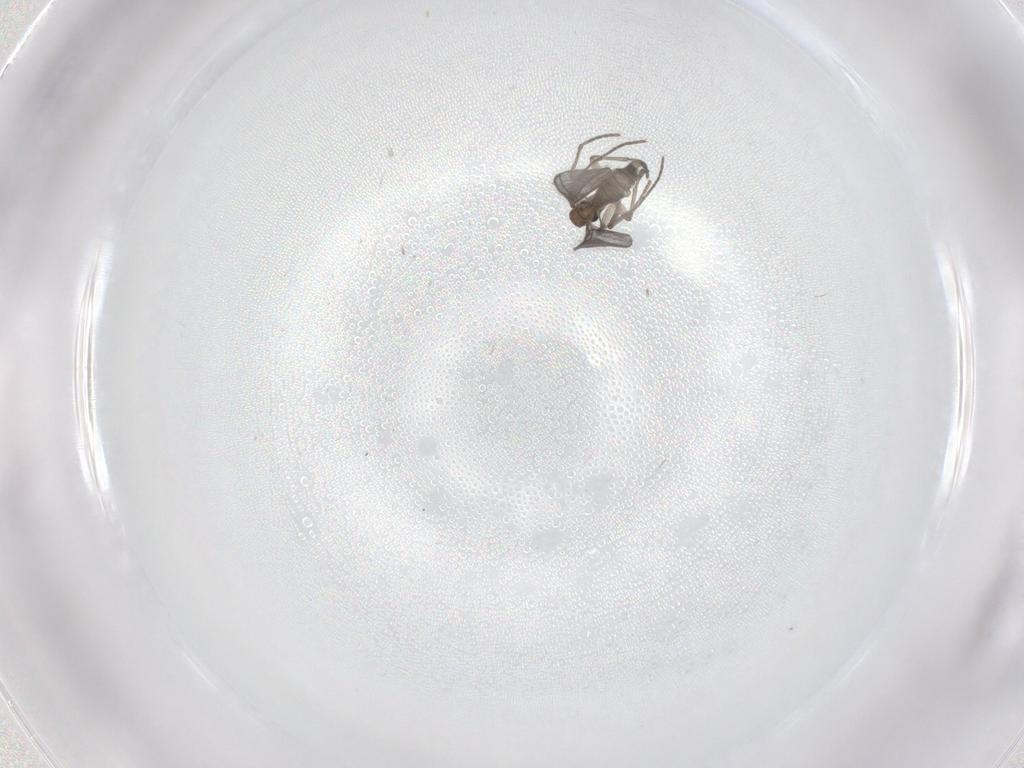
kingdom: Animalia
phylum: Arthropoda
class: Insecta
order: Diptera
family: Sciaridae
